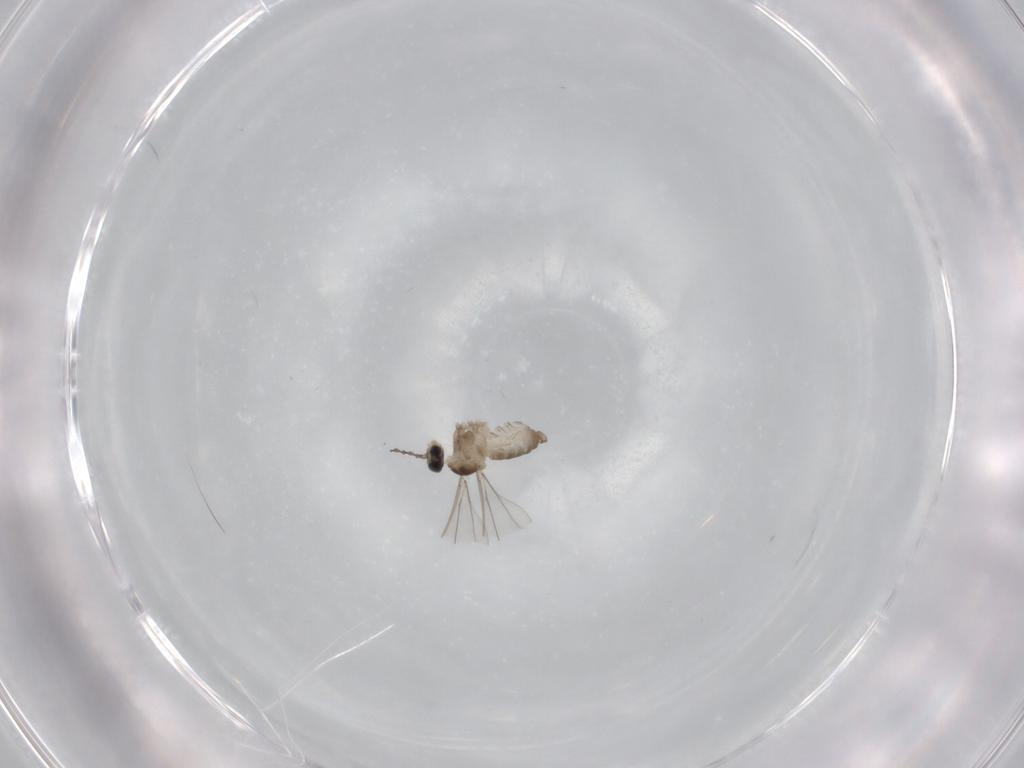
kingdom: Animalia
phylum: Arthropoda
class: Insecta
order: Diptera
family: Cecidomyiidae
